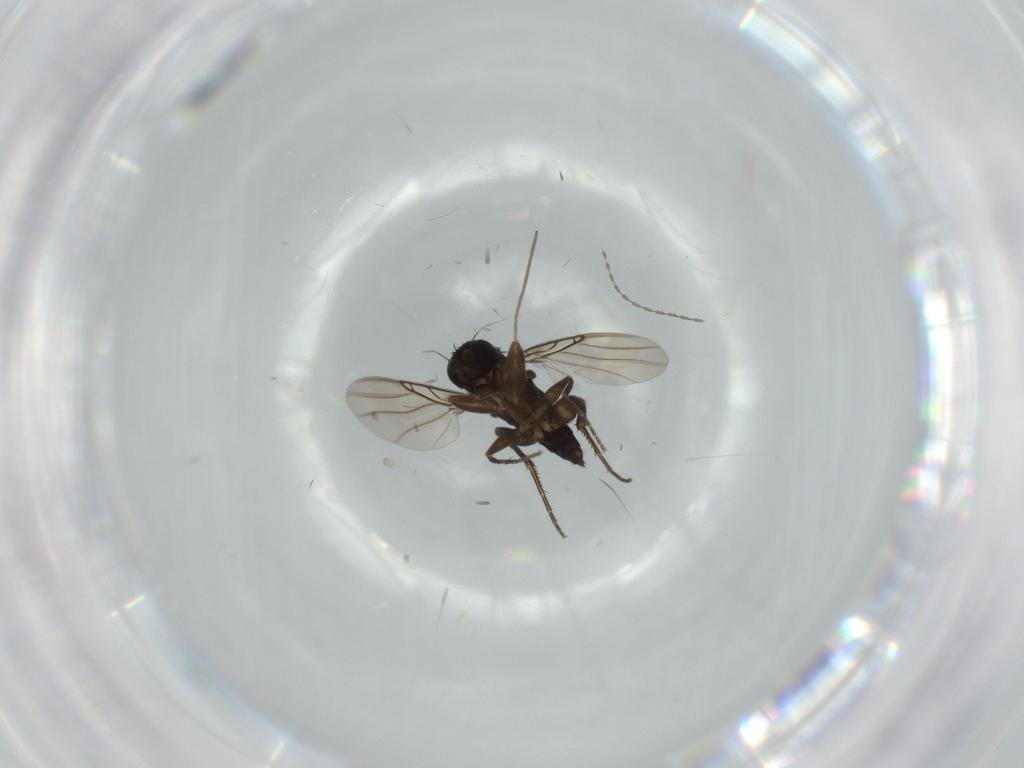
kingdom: Animalia
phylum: Arthropoda
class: Insecta
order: Diptera
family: Phoridae
